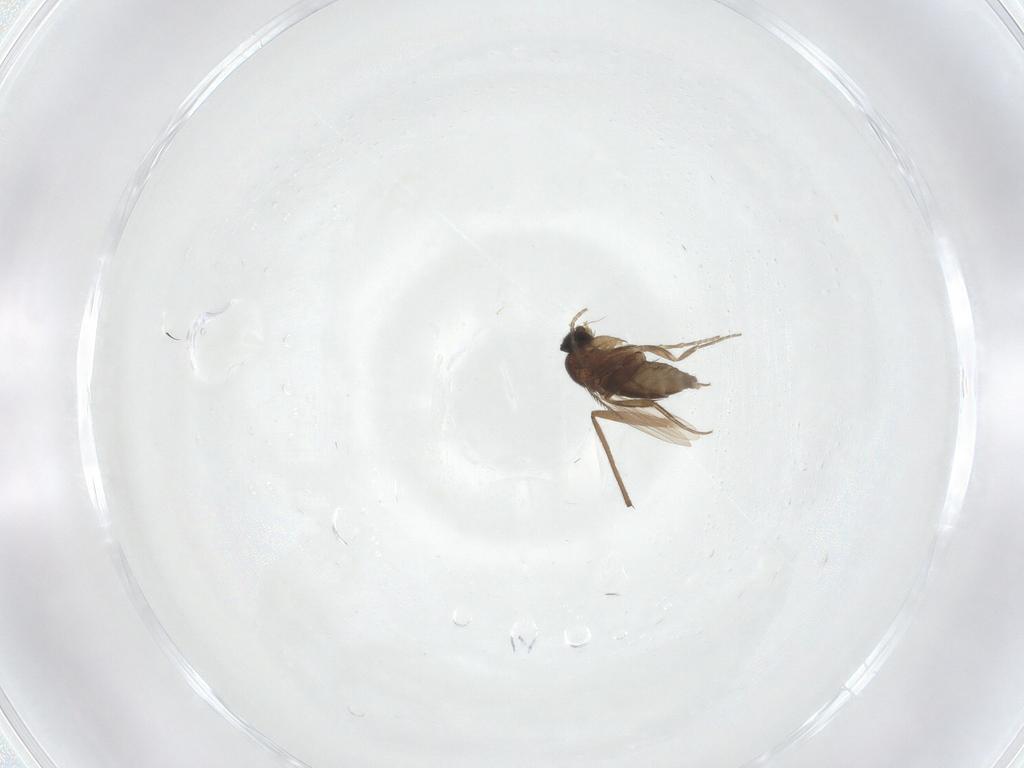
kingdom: Animalia
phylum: Arthropoda
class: Insecta
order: Diptera
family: Phoridae
